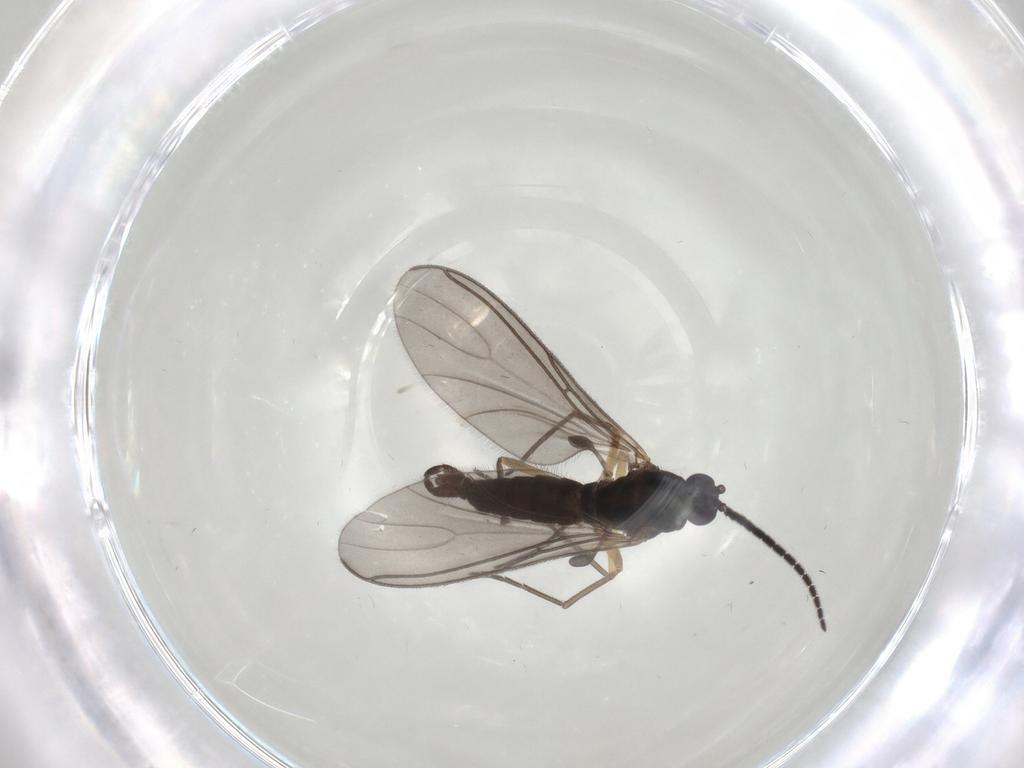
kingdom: Animalia
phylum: Arthropoda
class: Insecta
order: Diptera
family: Sciaridae
